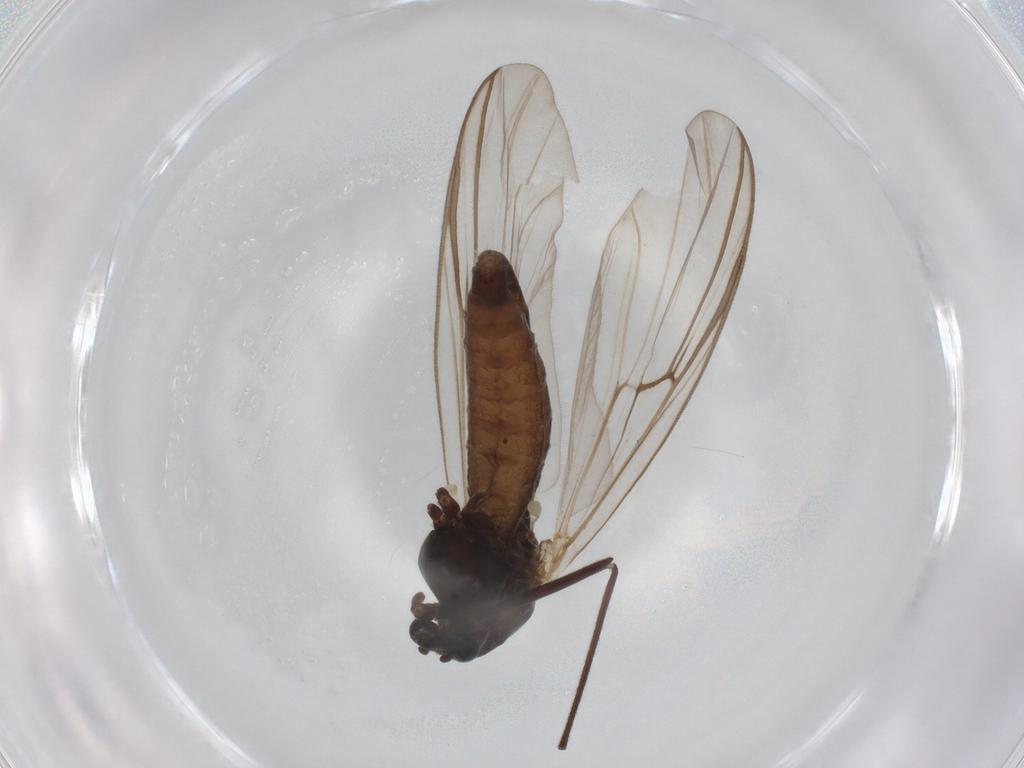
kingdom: Animalia
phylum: Arthropoda
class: Insecta
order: Diptera
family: Chironomidae
